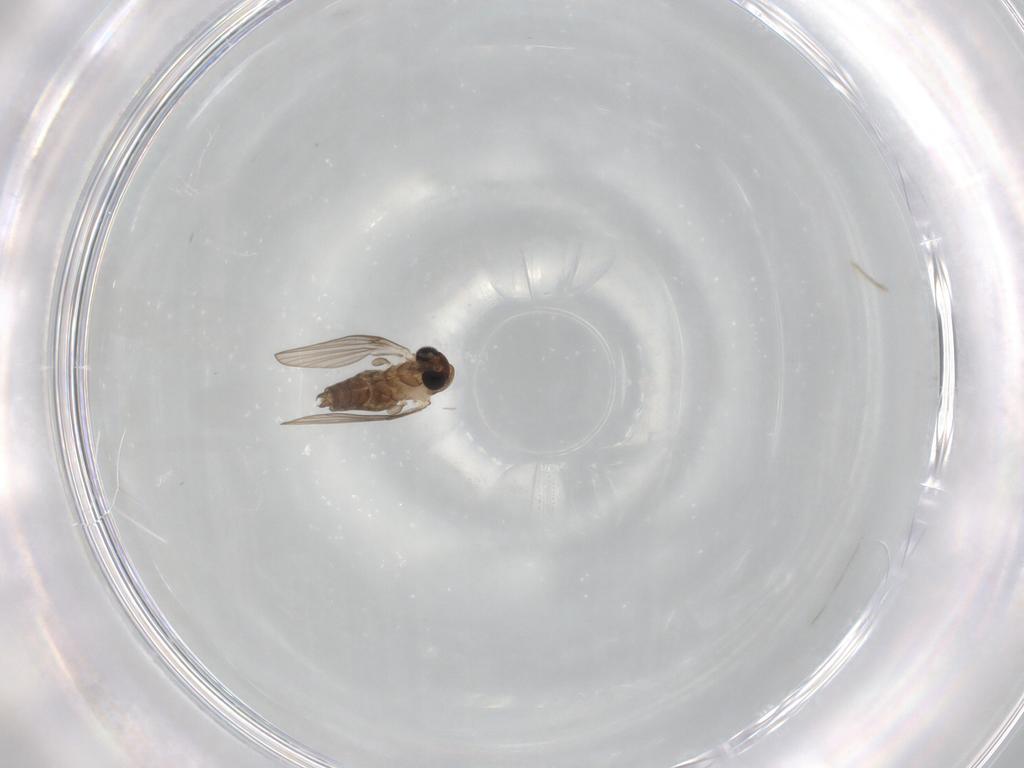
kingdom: Animalia
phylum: Arthropoda
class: Insecta
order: Diptera
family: Psychodidae
